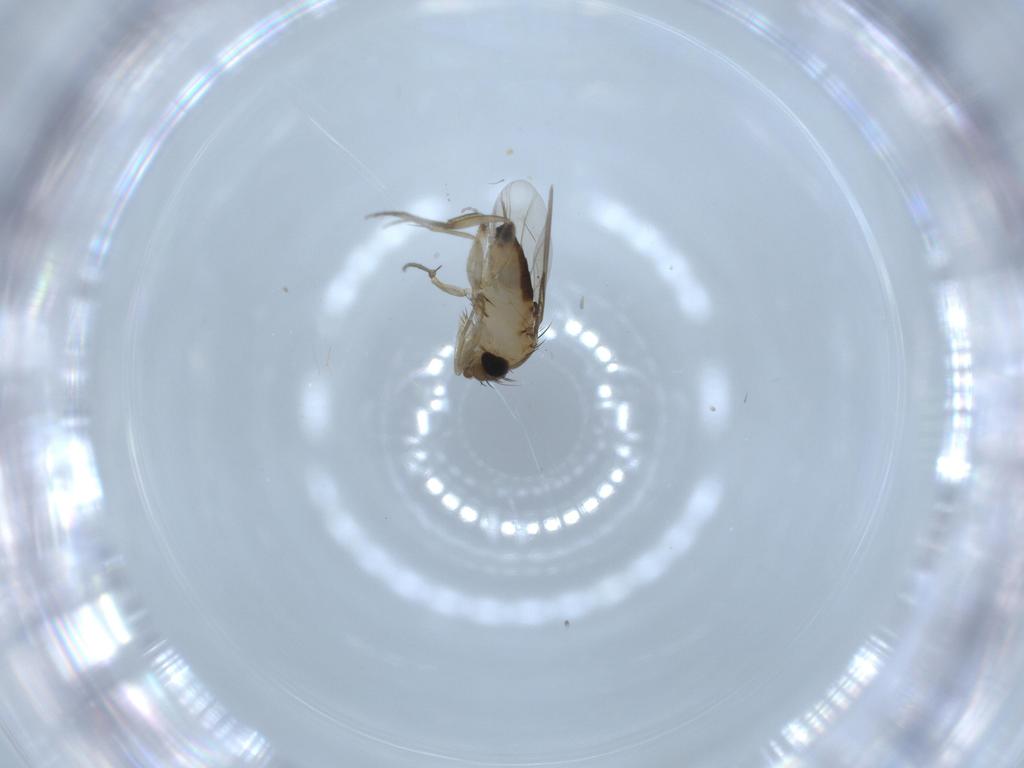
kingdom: Animalia
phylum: Arthropoda
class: Insecta
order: Diptera
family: Phoridae
